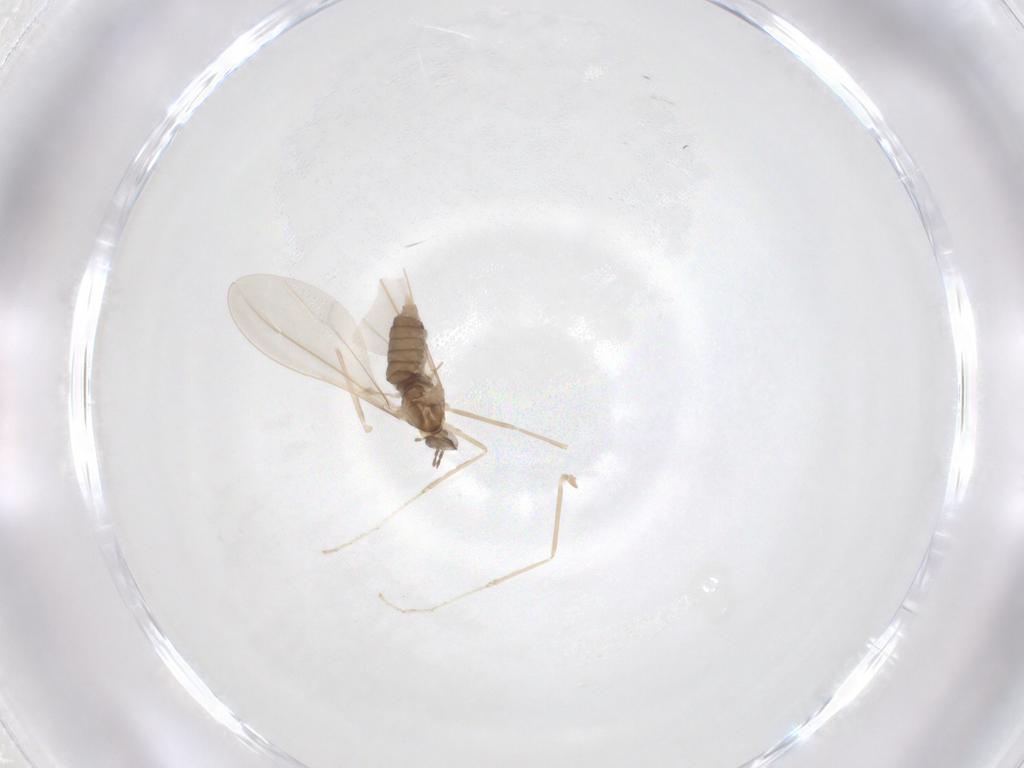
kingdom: Animalia
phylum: Arthropoda
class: Insecta
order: Diptera
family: Cecidomyiidae
